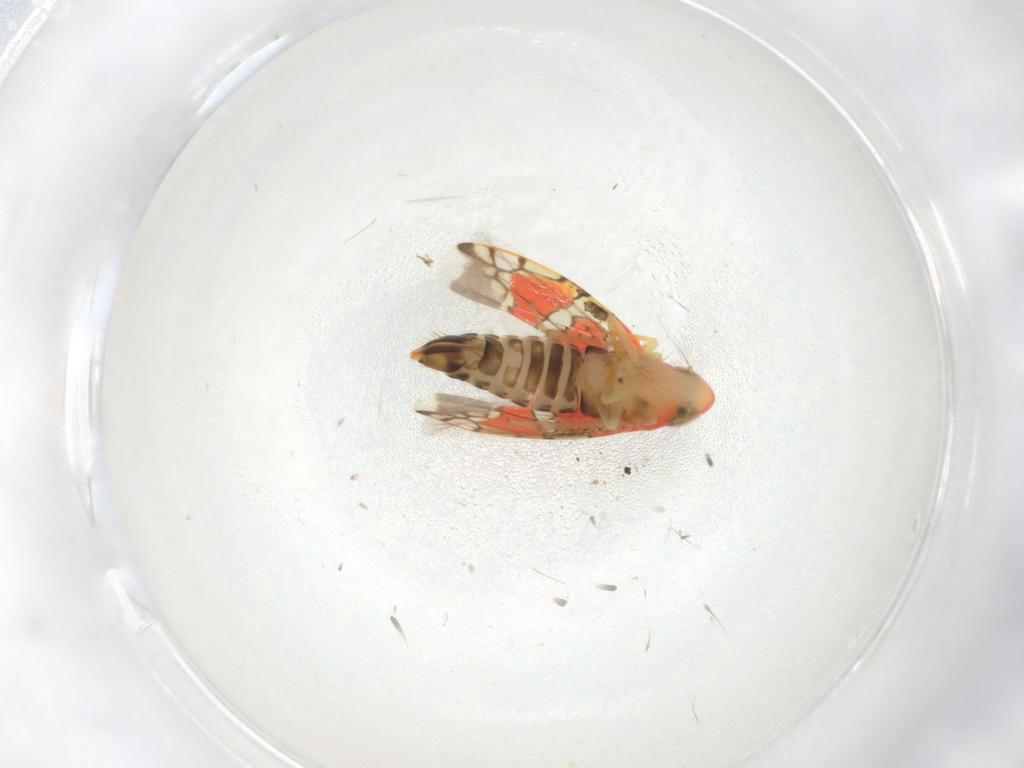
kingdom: Animalia
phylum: Arthropoda
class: Insecta
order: Hemiptera
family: Cicadellidae
